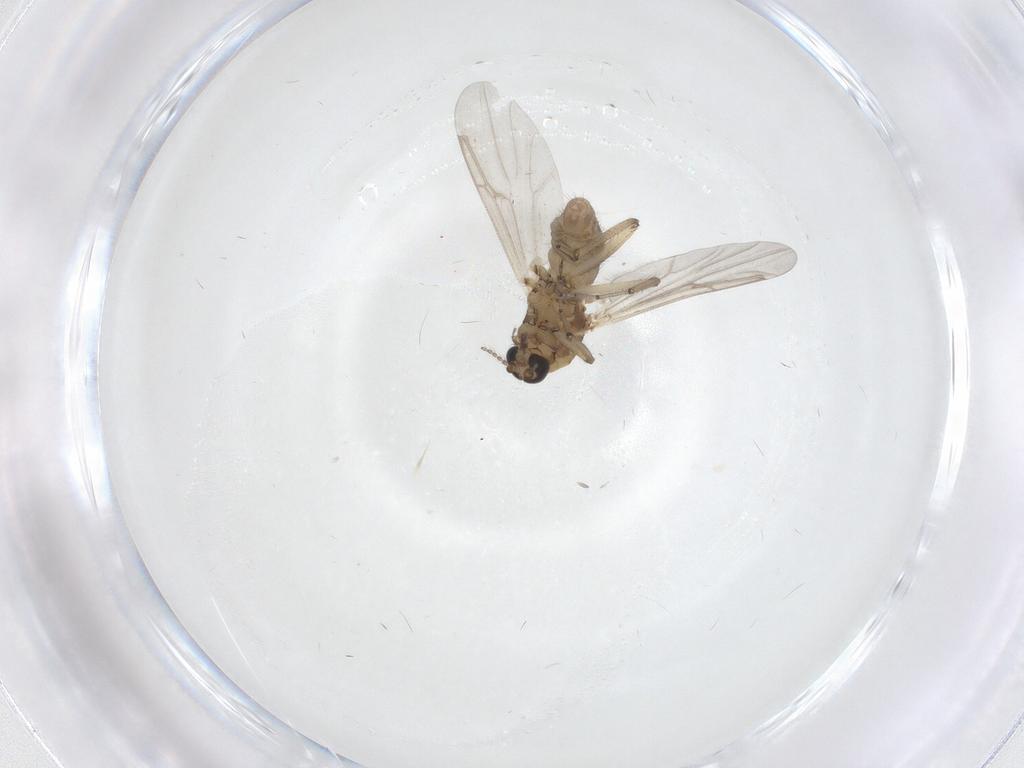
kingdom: Animalia
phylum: Arthropoda
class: Insecta
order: Diptera
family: Ceratopogonidae
